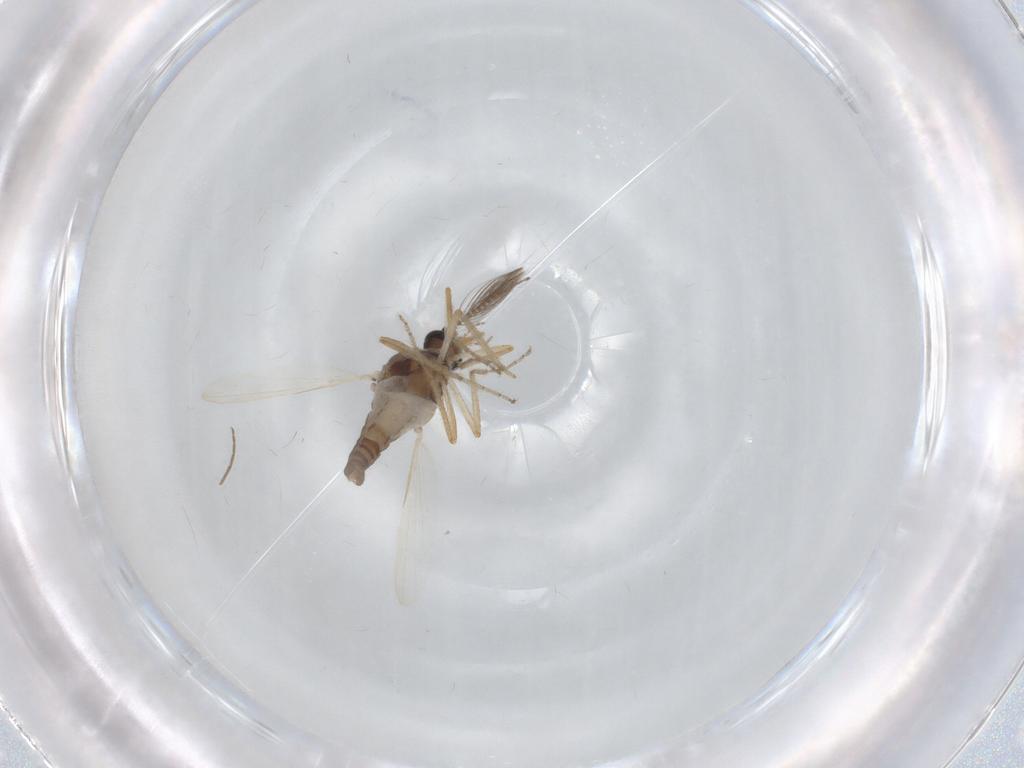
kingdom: Animalia
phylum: Arthropoda
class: Insecta
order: Diptera
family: Ceratopogonidae
